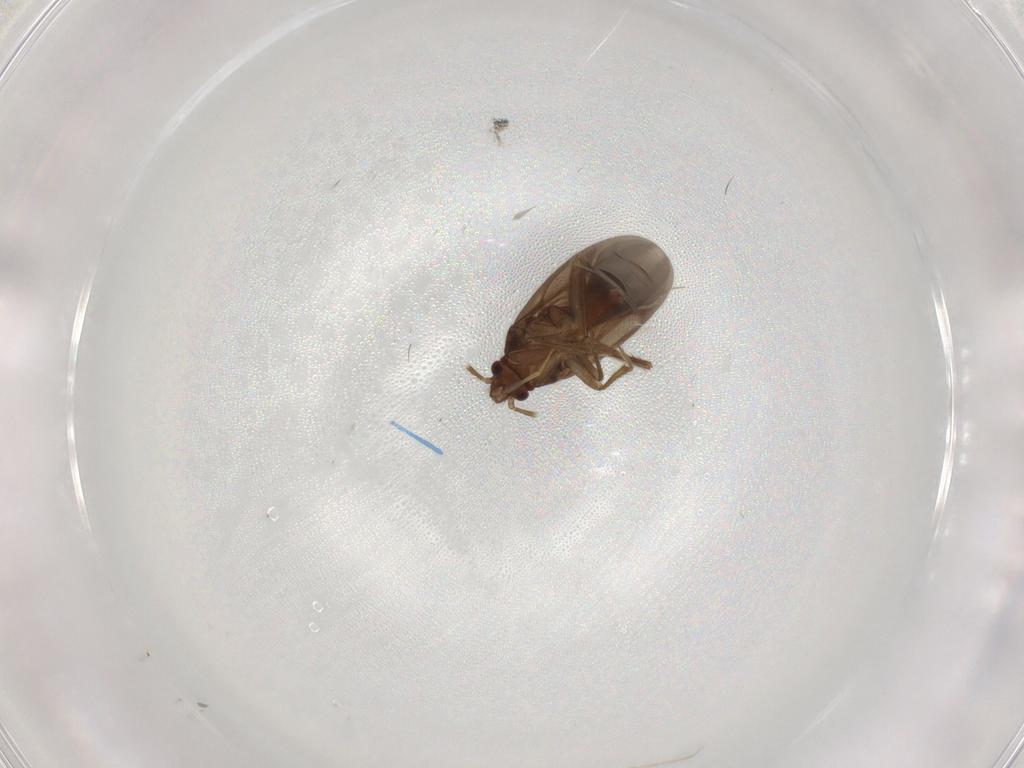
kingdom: Animalia
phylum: Arthropoda
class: Insecta
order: Hemiptera
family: Ceratocombidae
